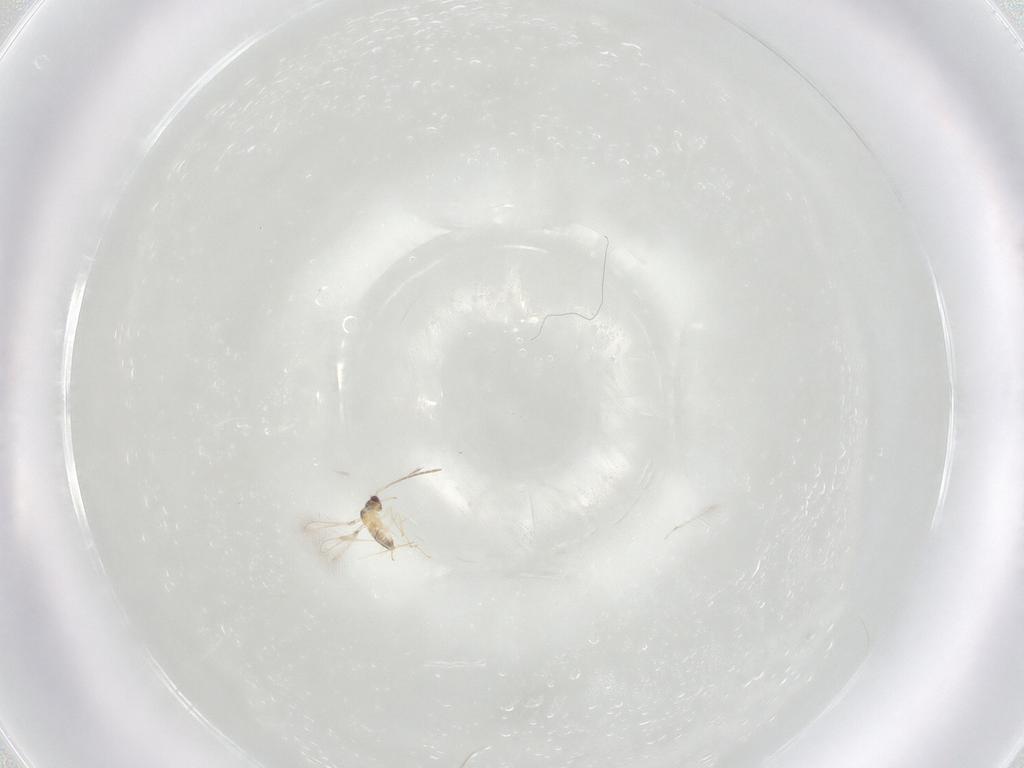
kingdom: Animalia
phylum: Arthropoda
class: Insecta
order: Hymenoptera
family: Mymaridae
